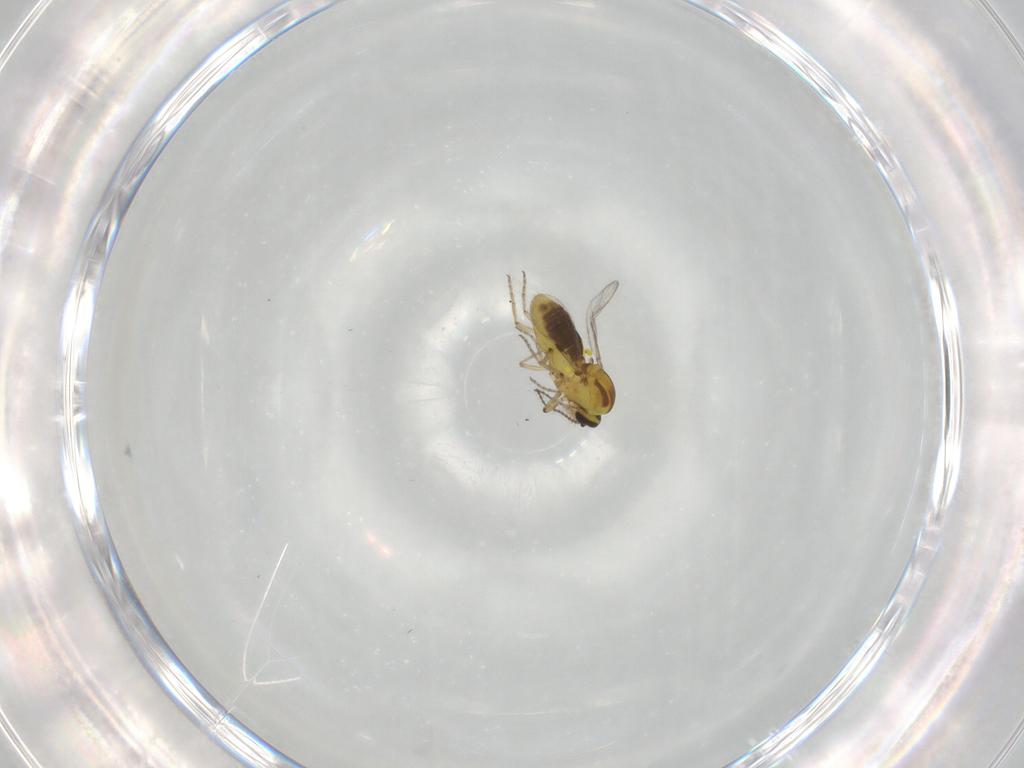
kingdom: Animalia
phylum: Arthropoda
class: Insecta
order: Diptera
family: Ceratopogonidae
